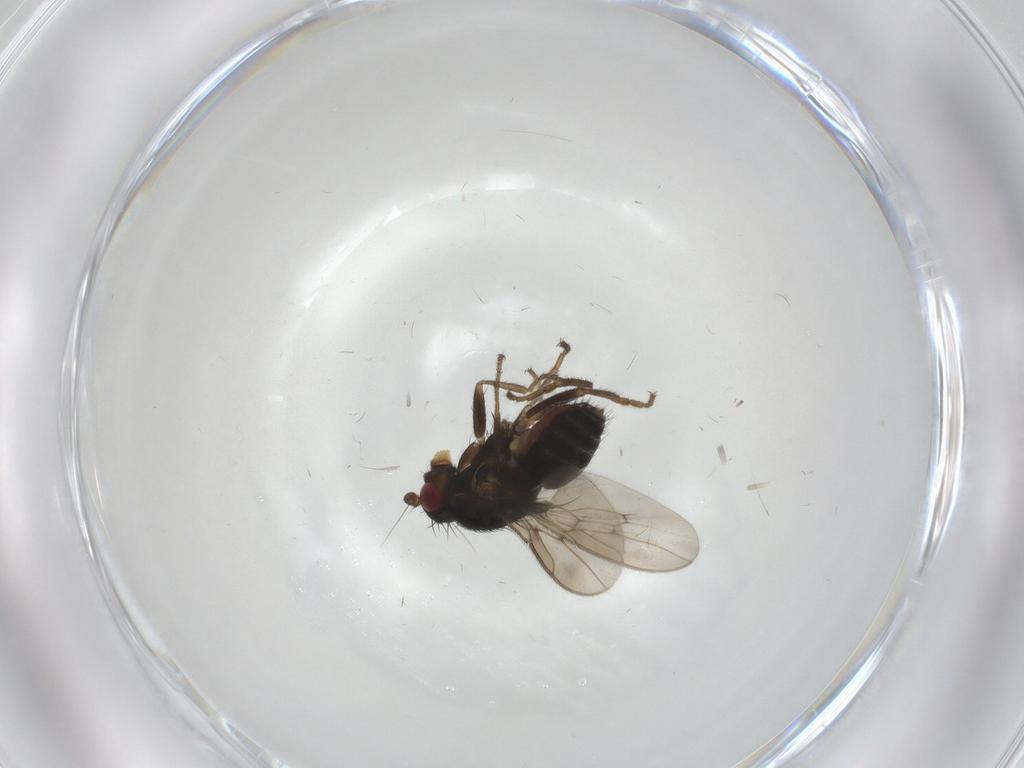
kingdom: Animalia
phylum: Arthropoda
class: Insecta
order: Diptera
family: Sphaeroceridae
